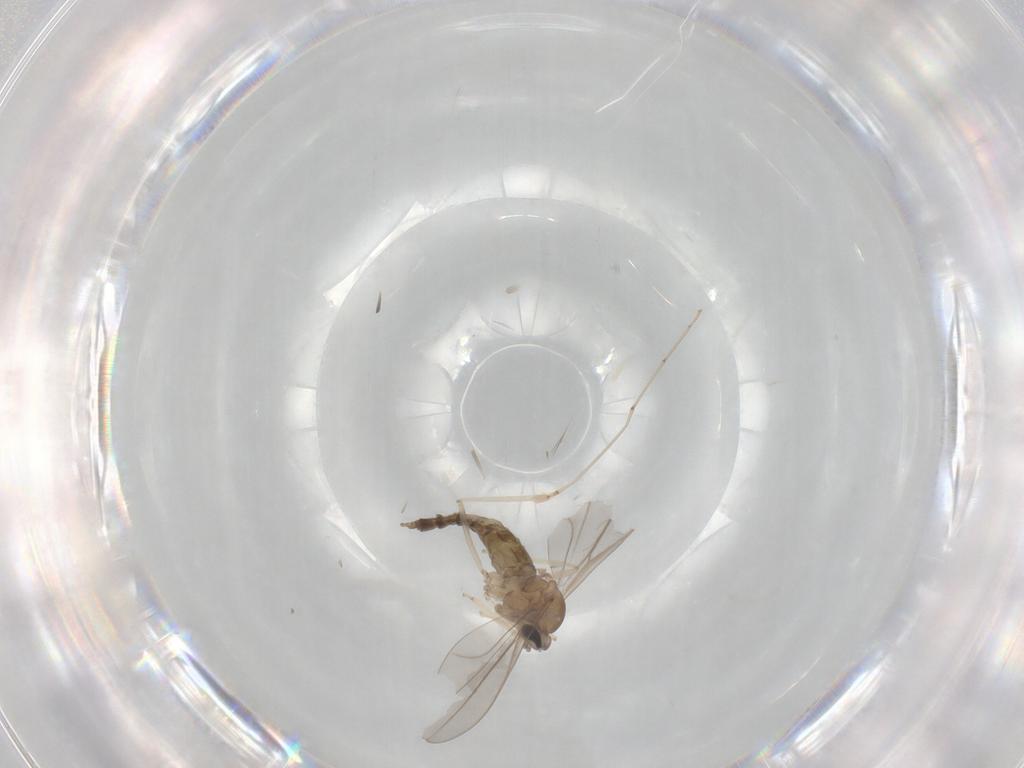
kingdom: Animalia
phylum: Arthropoda
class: Insecta
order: Diptera
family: Cecidomyiidae
